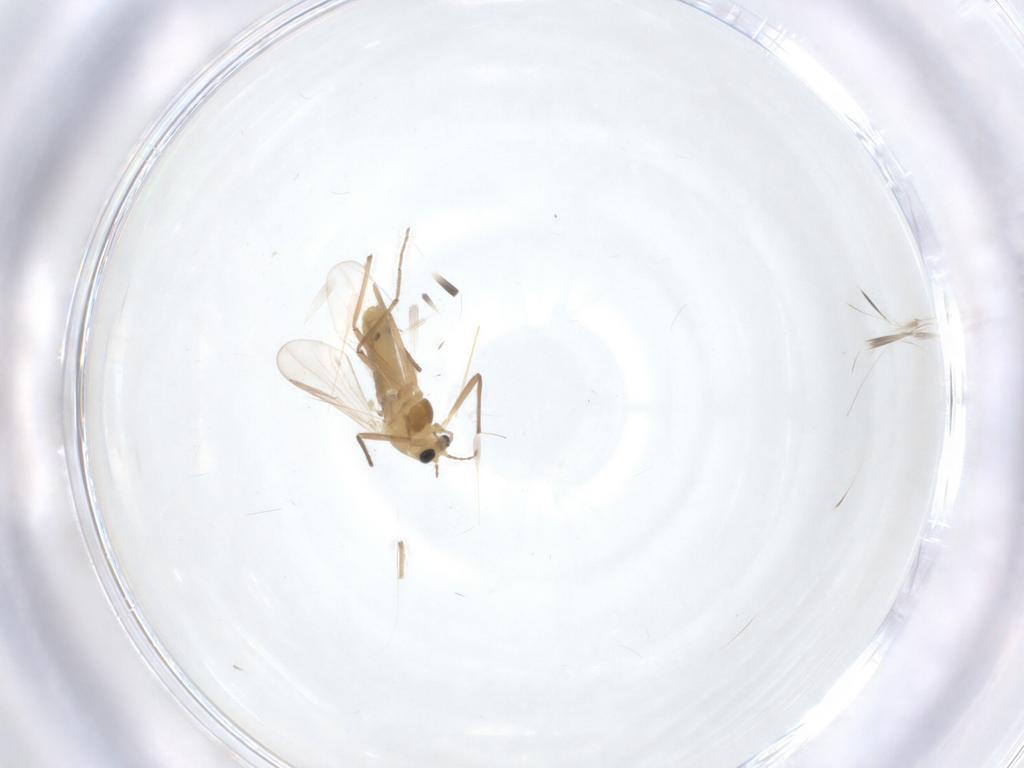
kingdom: Animalia
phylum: Arthropoda
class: Insecta
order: Diptera
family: Chironomidae
